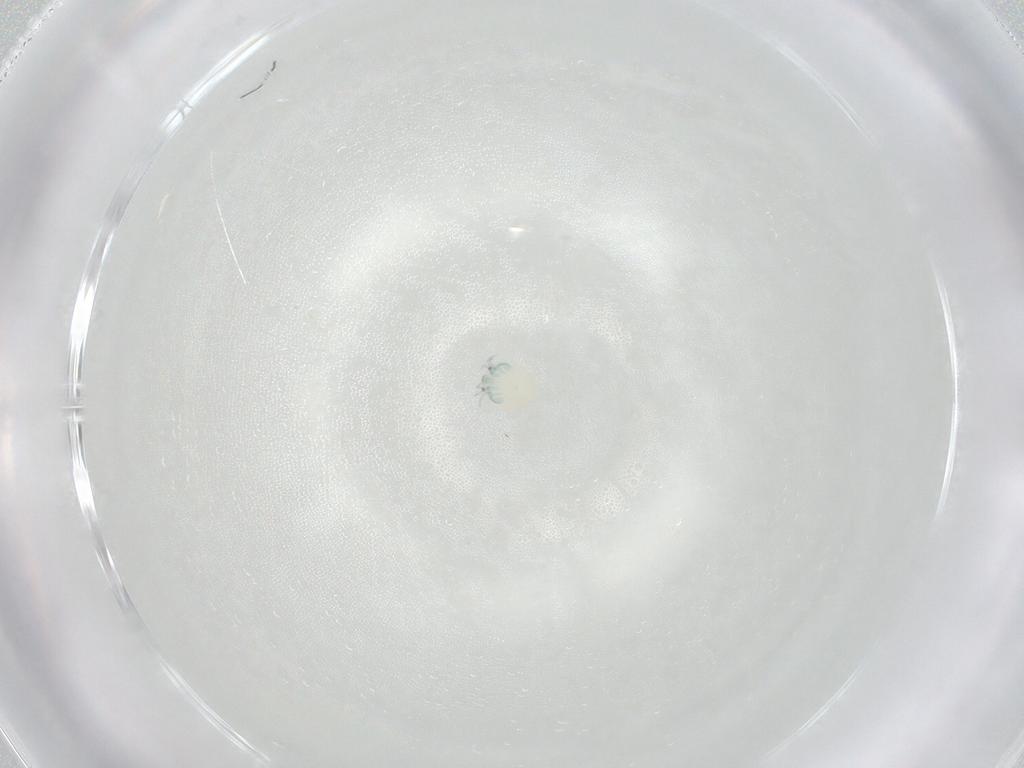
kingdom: Animalia
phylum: Arthropoda
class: Arachnida
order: Trombidiformes
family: Arrenuridae
